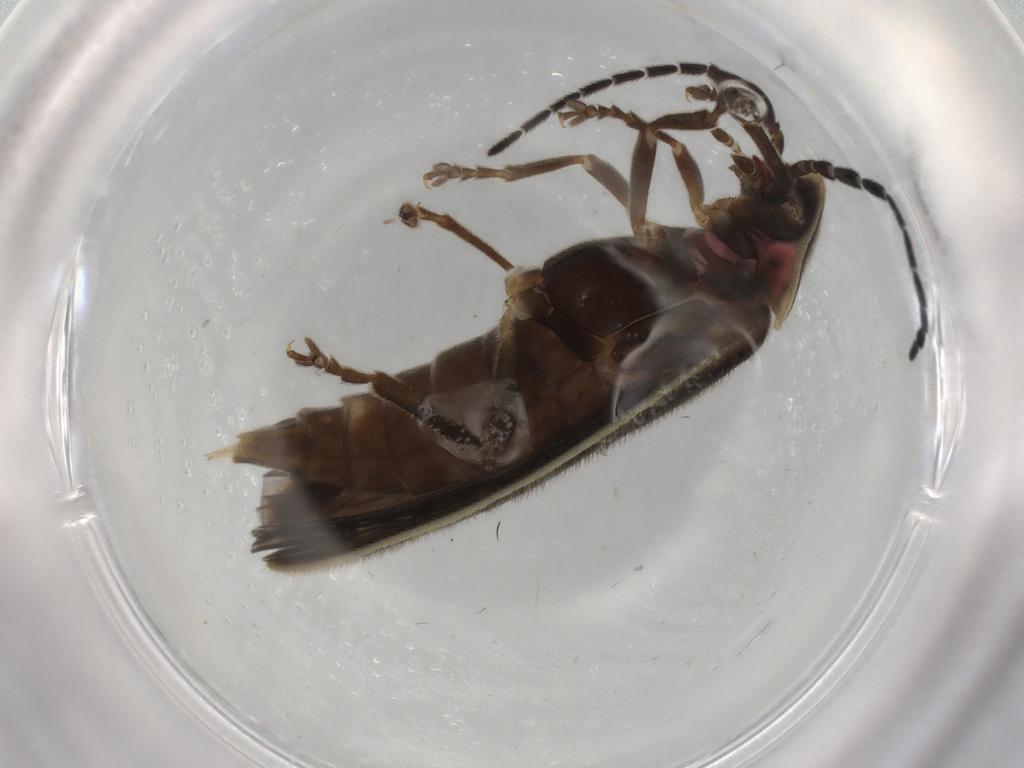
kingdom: Animalia
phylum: Arthropoda
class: Insecta
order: Coleoptera
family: Lampyridae
